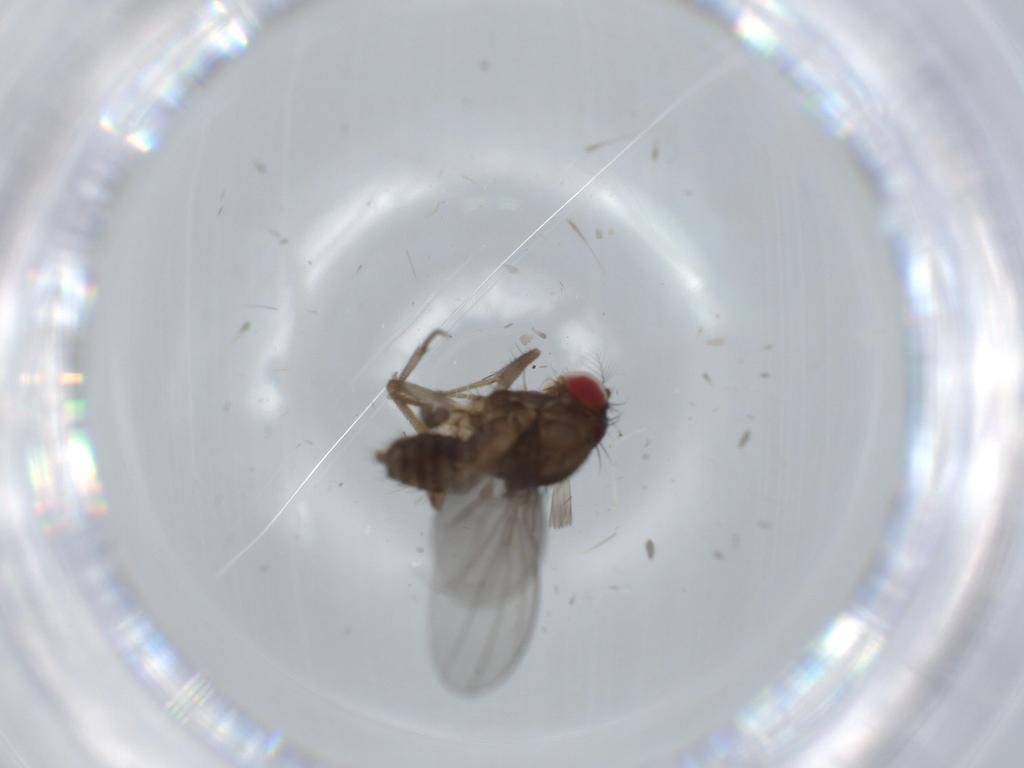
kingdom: Animalia
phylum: Arthropoda
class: Insecta
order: Diptera
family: Drosophilidae
